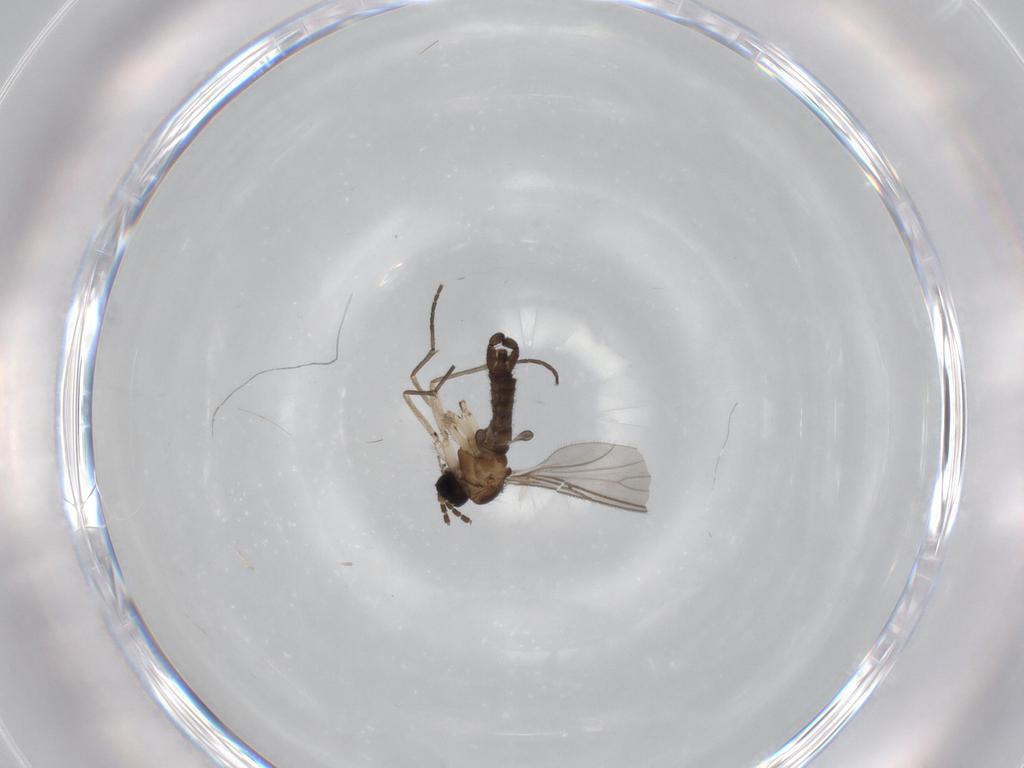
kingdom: Animalia
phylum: Arthropoda
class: Insecta
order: Diptera
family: Sciaridae
